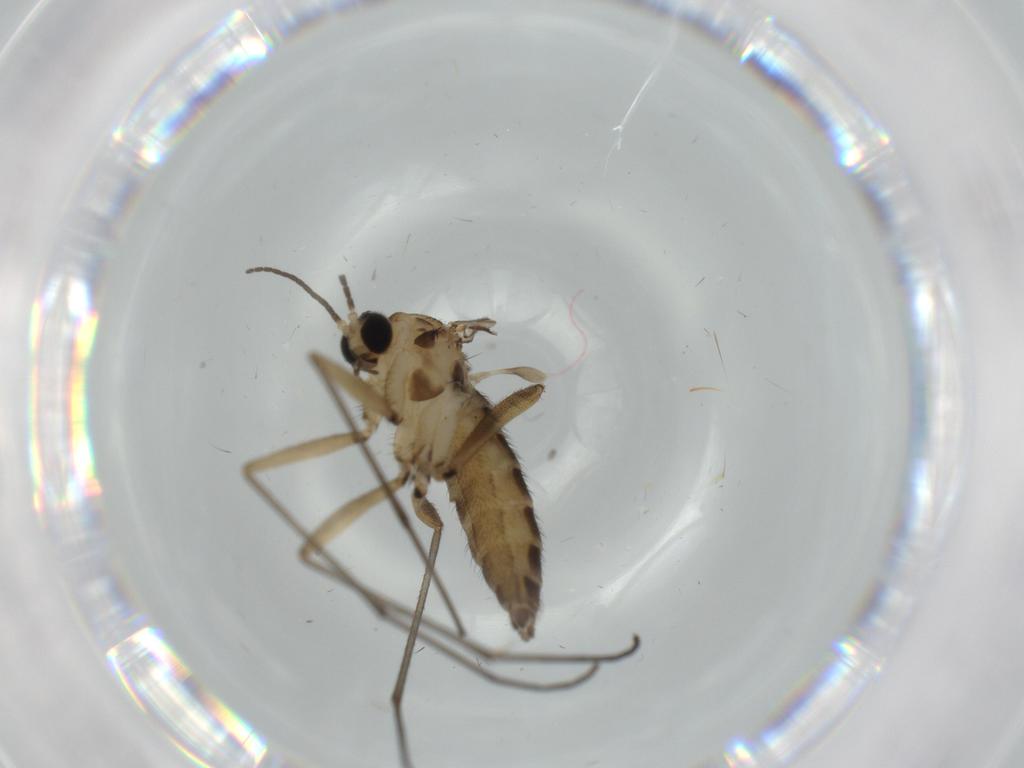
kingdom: Animalia
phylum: Arthropoda
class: Insecta
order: Diptera
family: Sciaridae
